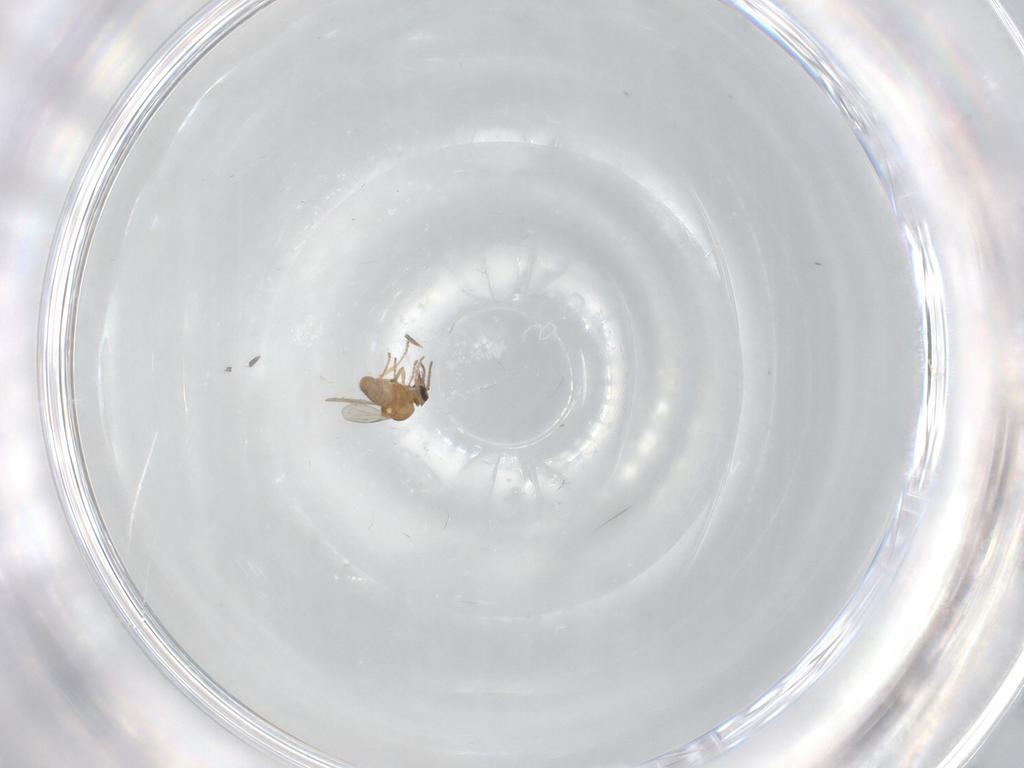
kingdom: Animalia
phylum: Arthropoda
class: Insecta
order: Diptera
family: Ceratopogonidae
